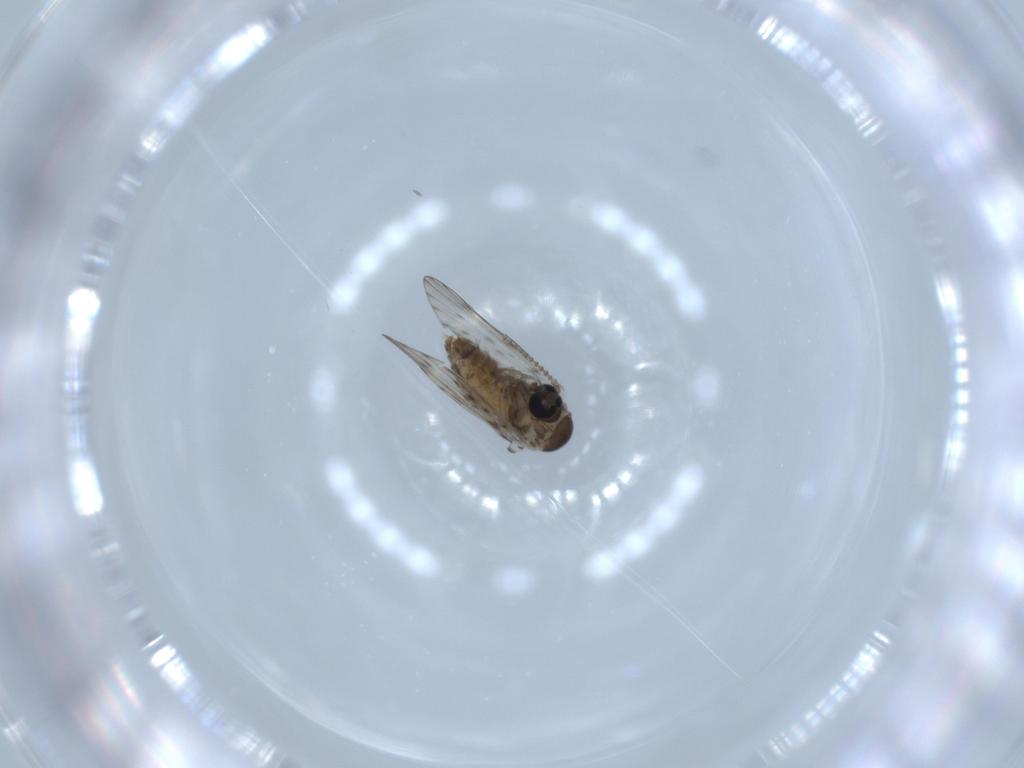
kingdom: Animalia
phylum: Arthropoda
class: Insecta
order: Diptera
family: Psychodidae
